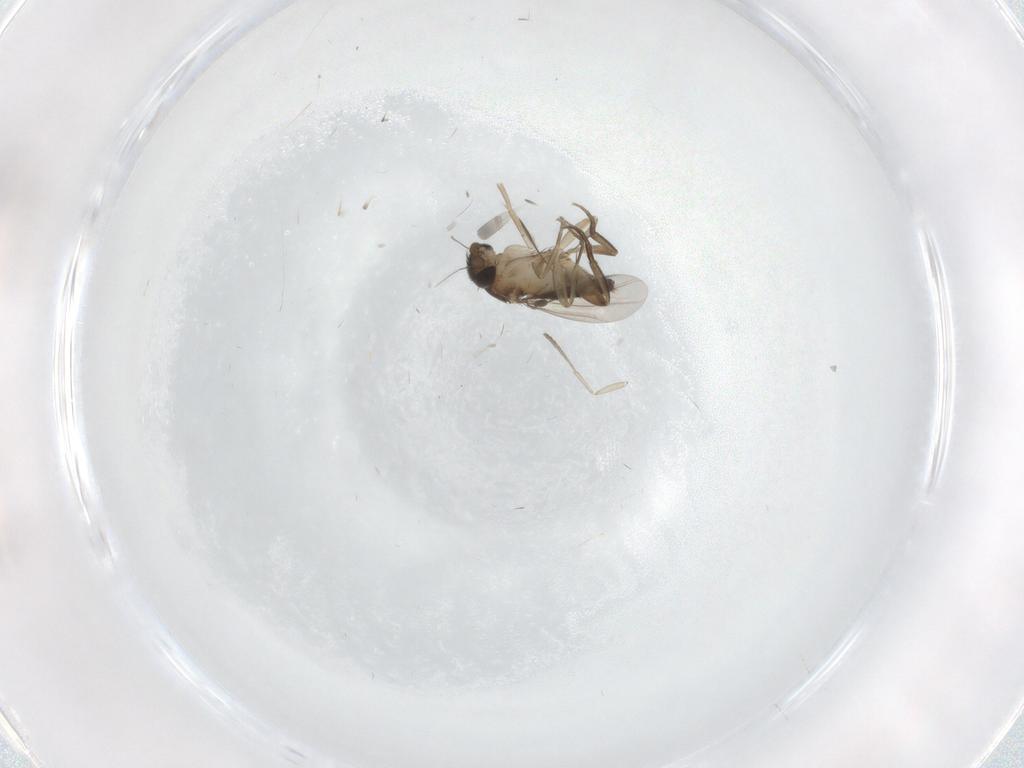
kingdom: Animalia
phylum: Arthropoda
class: Insecta
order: Diptera
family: Phoridae
